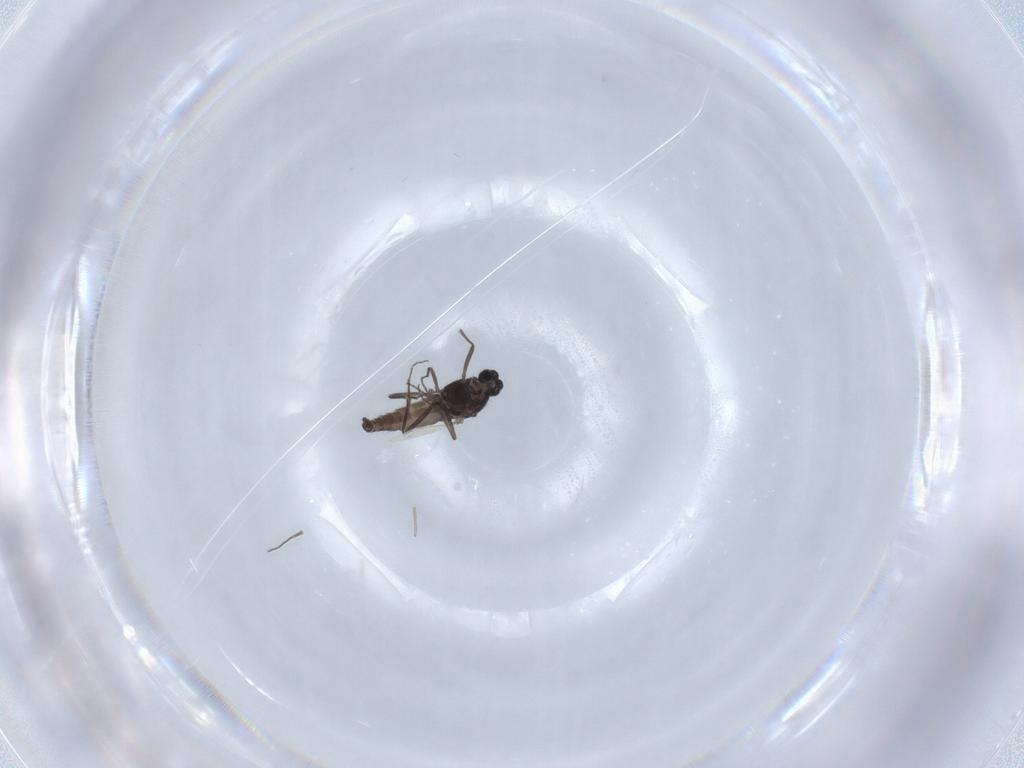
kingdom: Animalia
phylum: Arthropoda
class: Insecta
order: Diptera
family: Ceratopogonidae
